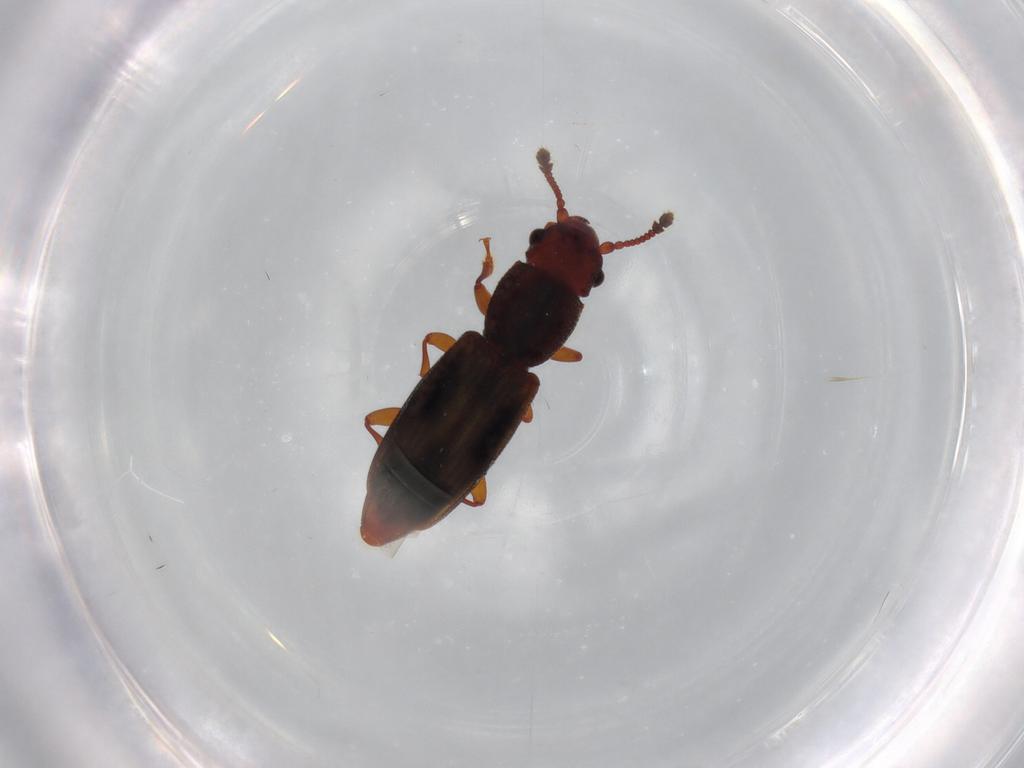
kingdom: Animalia
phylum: Arthropoda
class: Insecta
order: Coleoptera
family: Monotomidae
